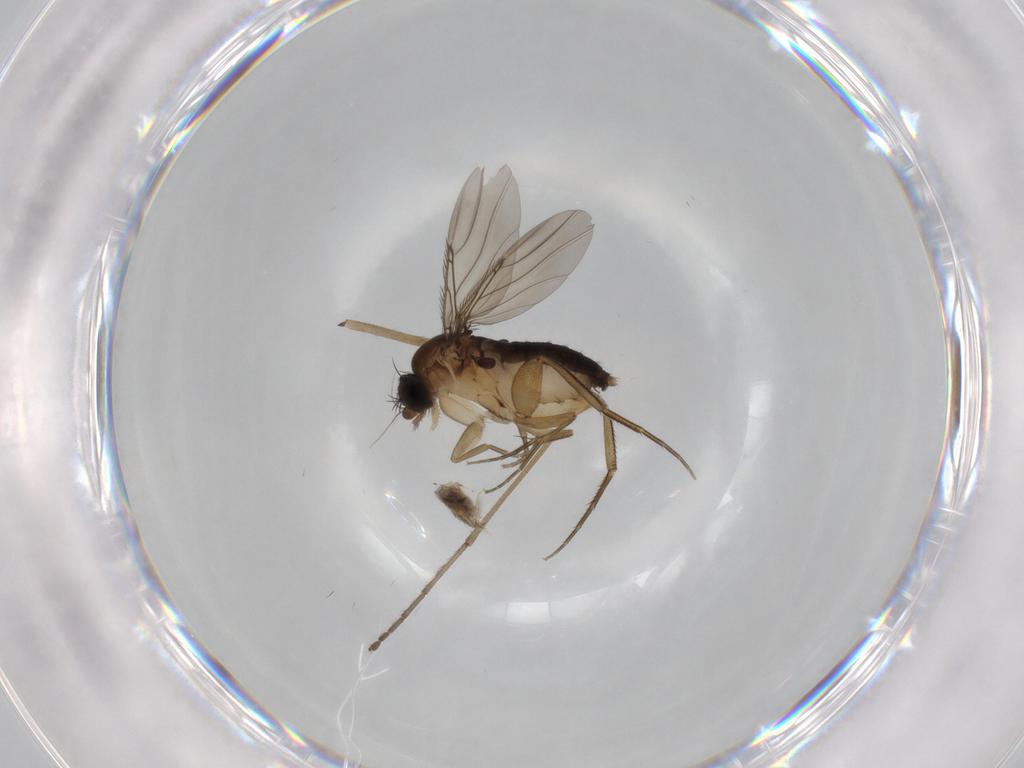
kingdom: Animalia
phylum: Arthropoda
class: Insecta
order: Diptera
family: Phoridae
